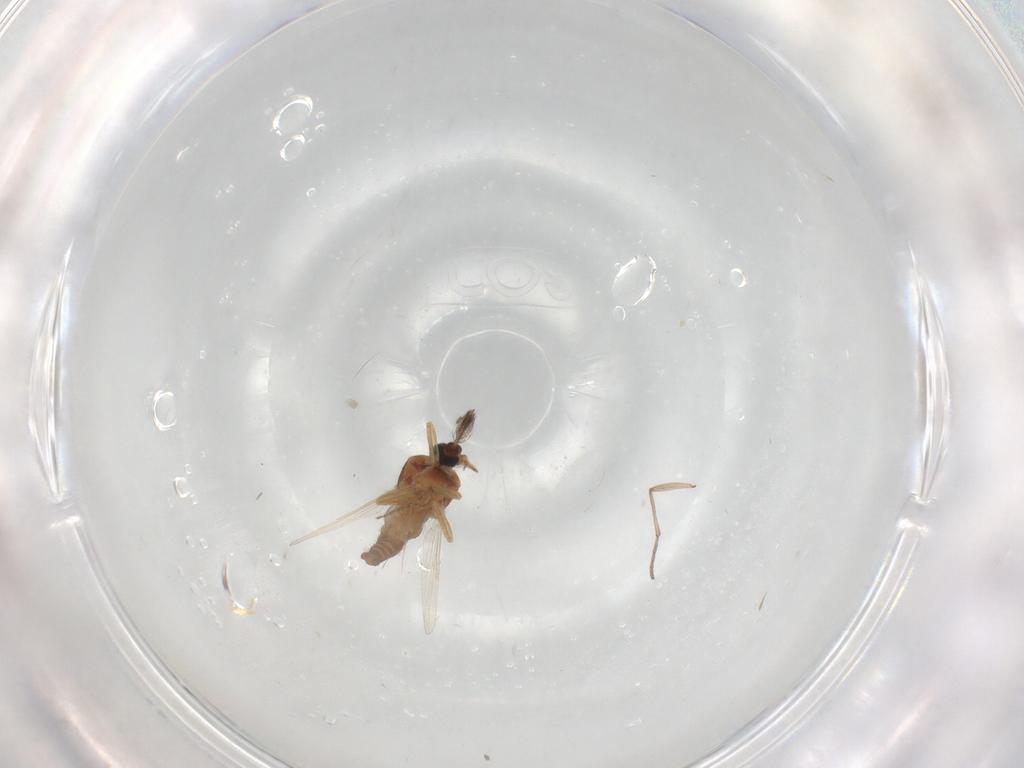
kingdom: Animalia
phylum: Arthropoda
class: Insecta
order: Diptera
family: Ceratopogonidae
